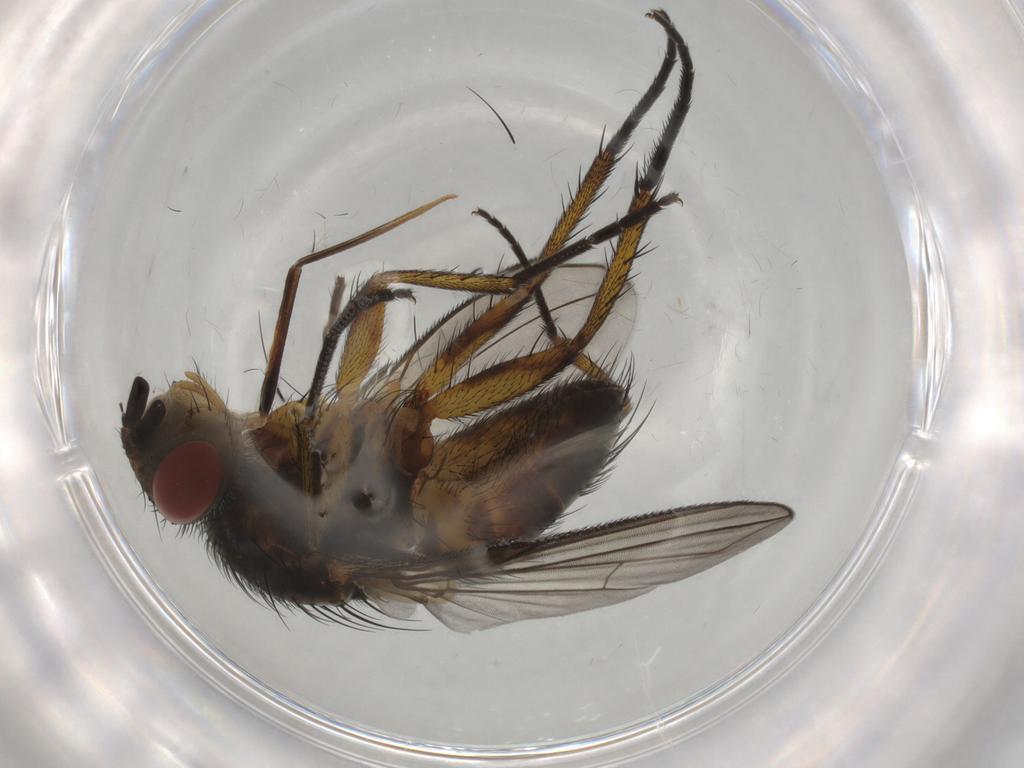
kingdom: Animalia
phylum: Arthropoda
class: Insecta
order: Diptera
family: Tachinidae
